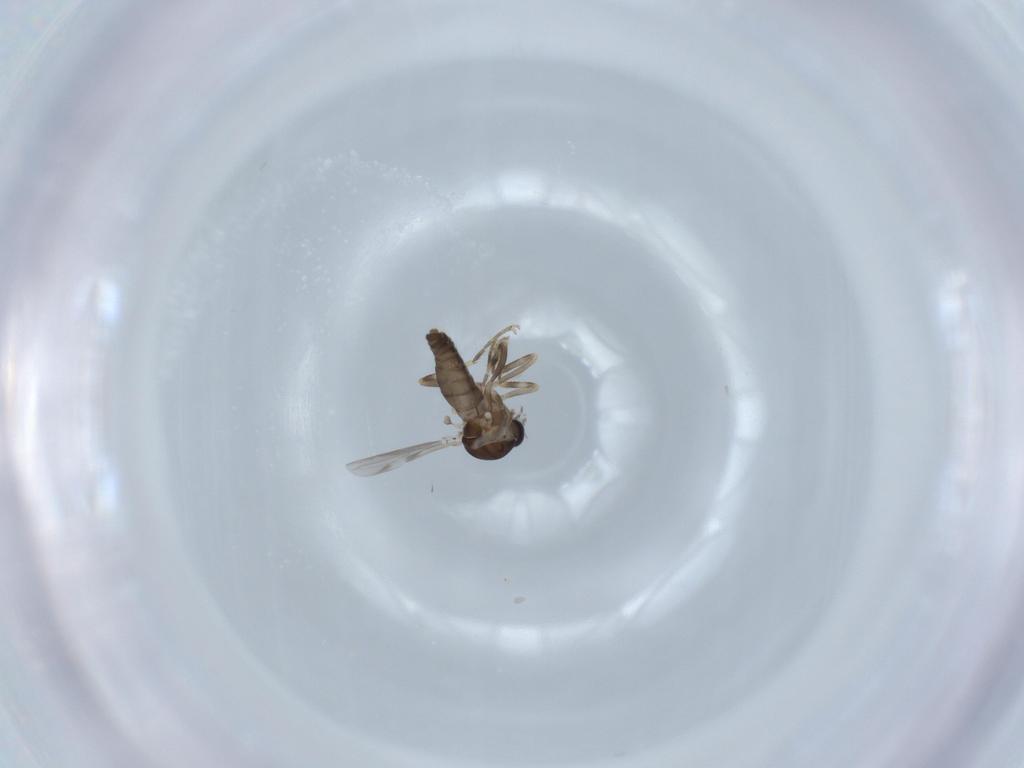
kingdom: Animalia
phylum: Arthropoda
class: Insecta
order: Diptera
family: Ceratopogonidae
